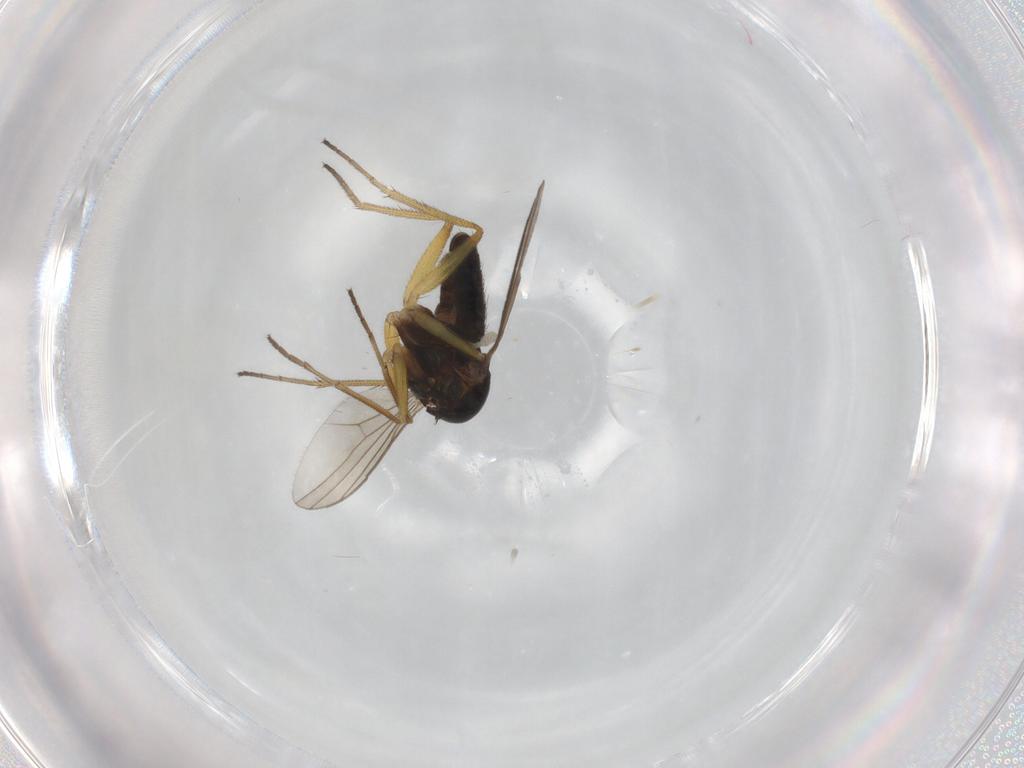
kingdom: Animalia
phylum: Arthropoda
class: Insecta
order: Diptera
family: Dolichopodidae
